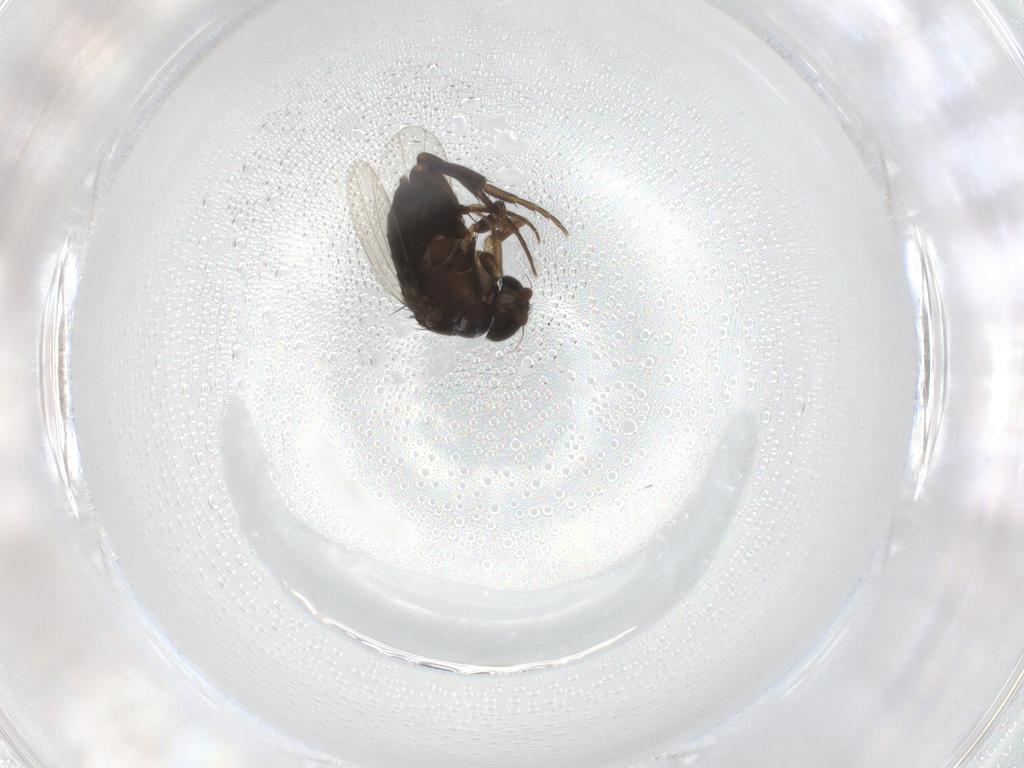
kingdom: Animalia
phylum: Arthropoda
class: Insecta
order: Diptera
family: Phoridae
